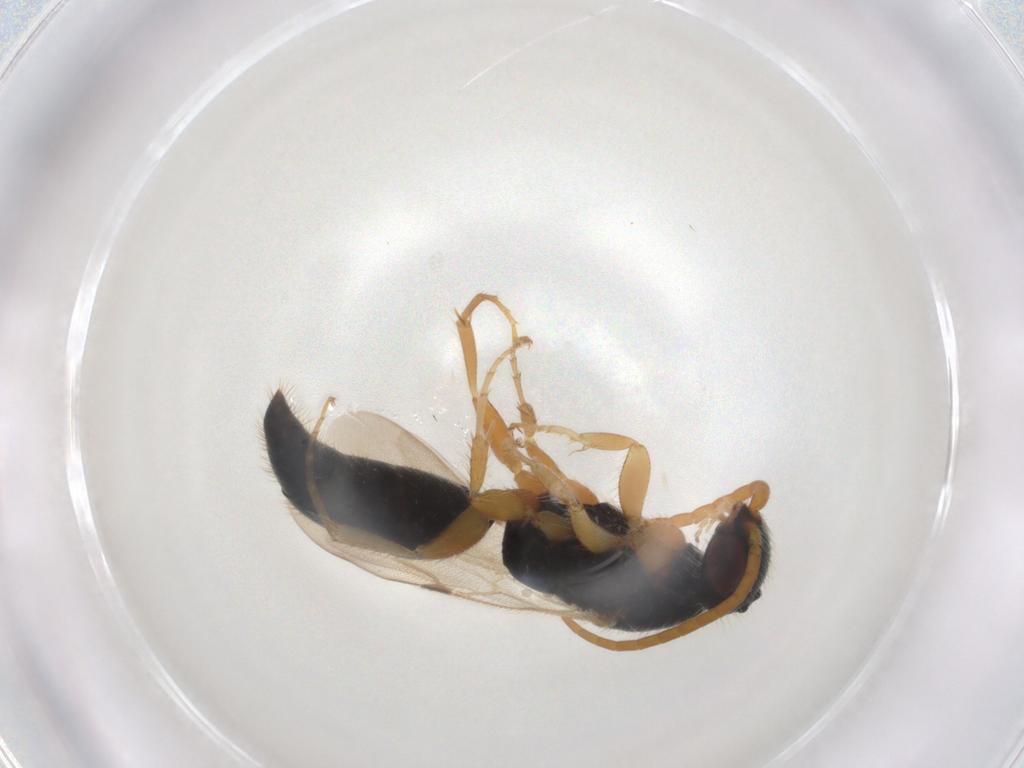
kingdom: Animalia
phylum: Arthropoda
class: Insecta
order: Hymenoptera
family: Bethylidae
